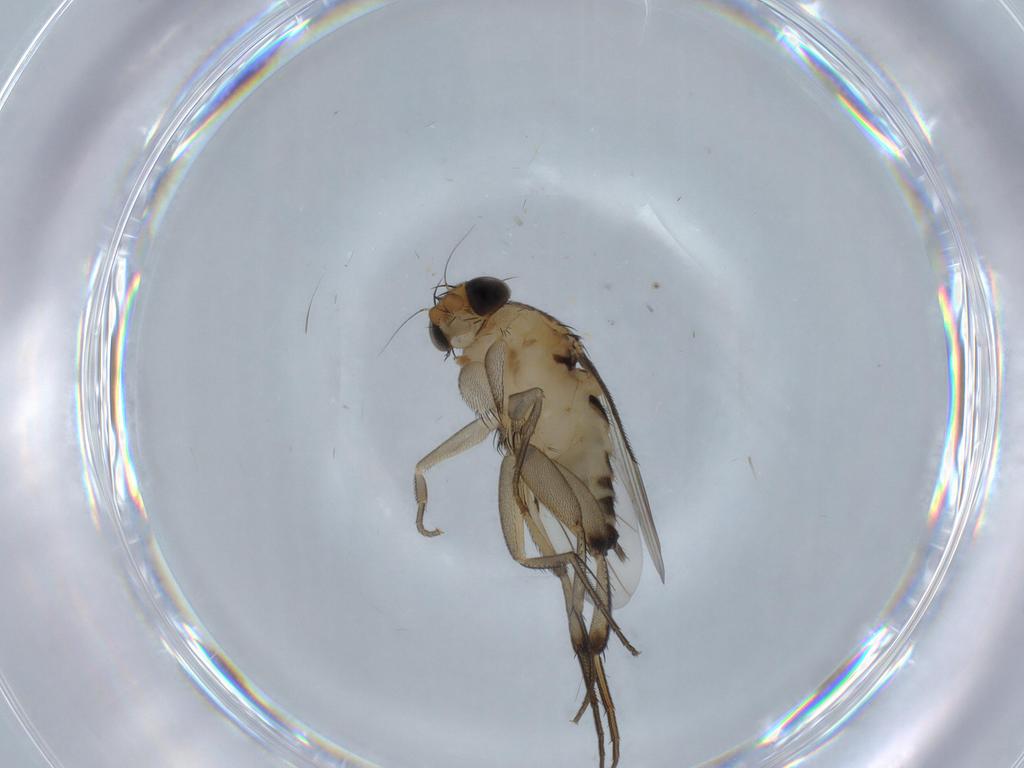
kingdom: Animalia
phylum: Arthropoda
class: Insecta
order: Diptera
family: Phoridae
